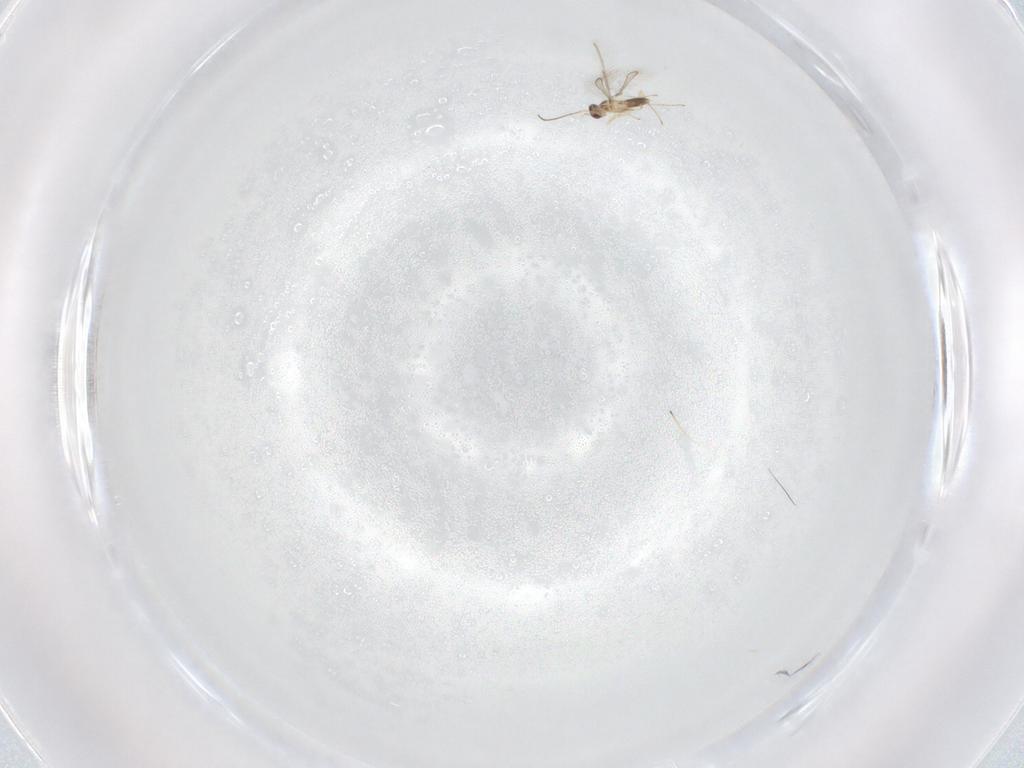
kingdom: Animalia
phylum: Arthropoda
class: Insecta
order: Hymenoptera
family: Mymaridae
